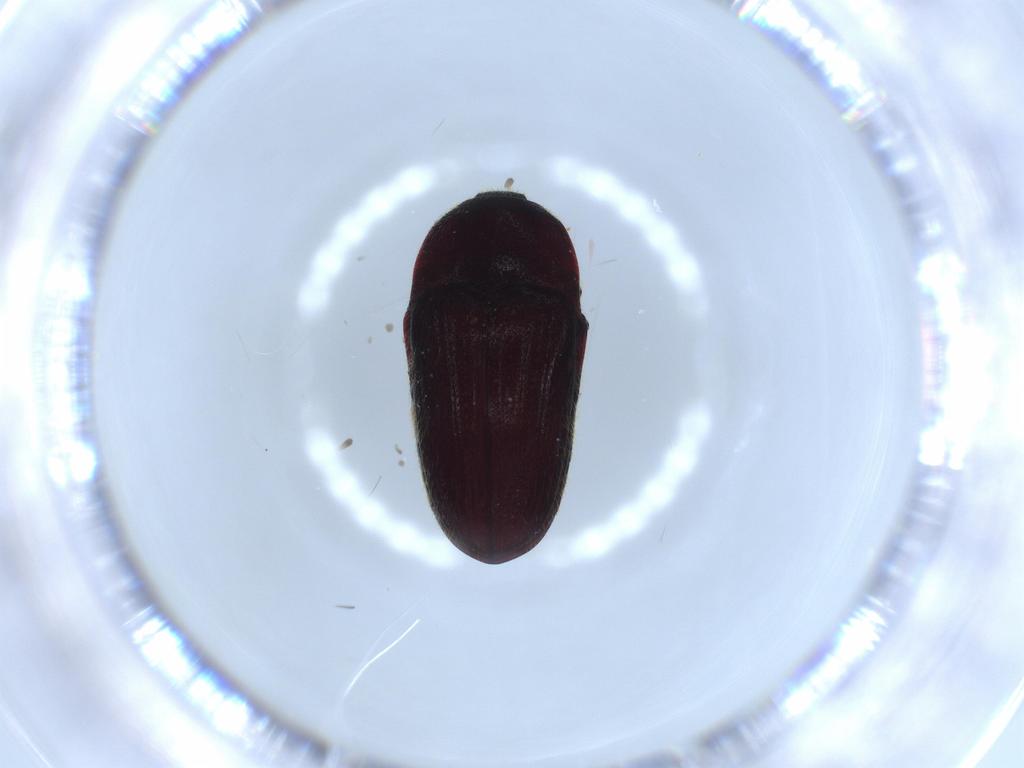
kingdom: Animalia
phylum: Arthropoda
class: Insecta
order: Coleoptera
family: Throscidae
